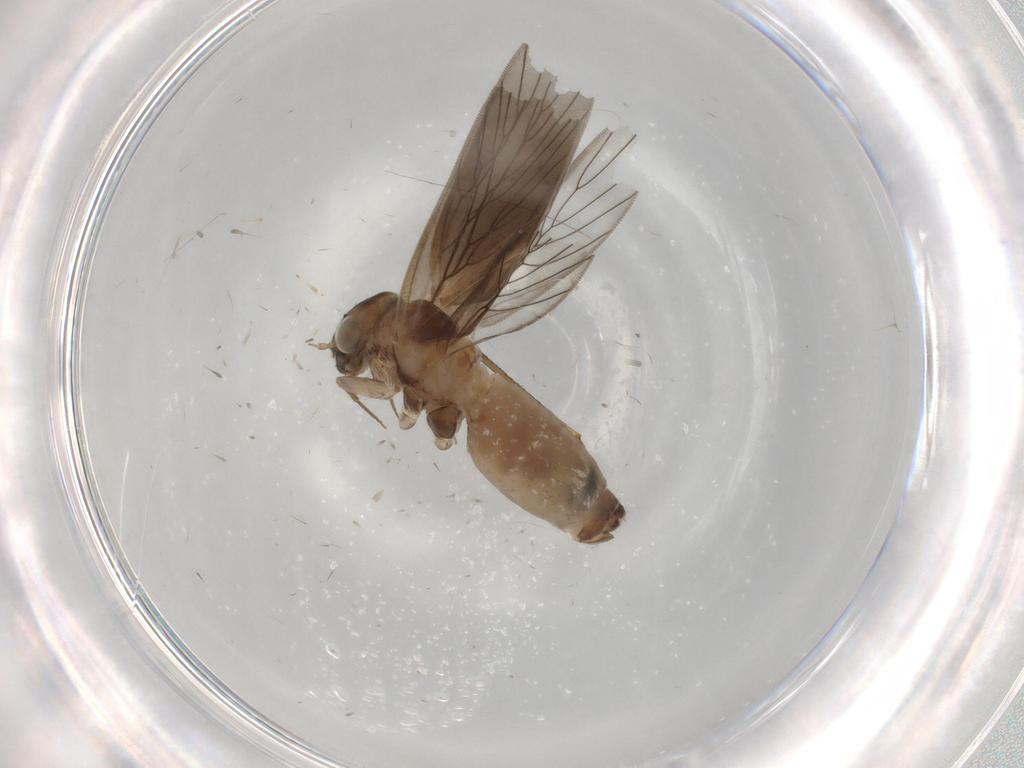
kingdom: Animalia
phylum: Arthropoda
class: Insecta
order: Psocodea
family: Lepidopsocidae
